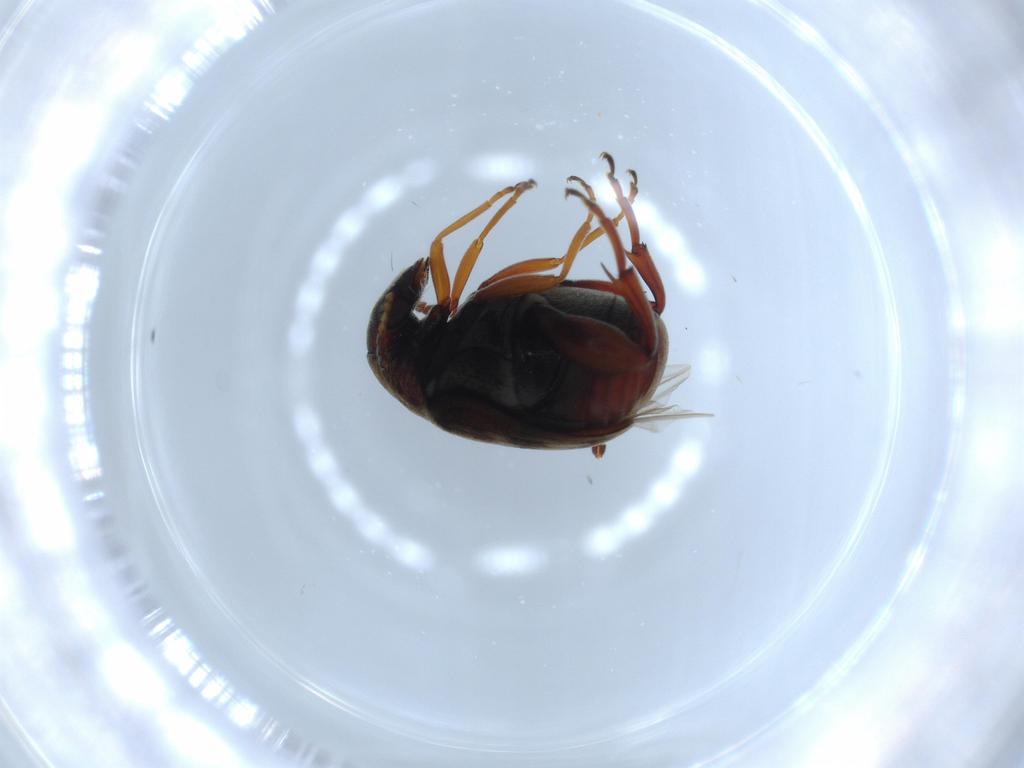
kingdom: Animalia
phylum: Arthropoda
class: Insecta
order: Coleoptera
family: Chrysomelidae
